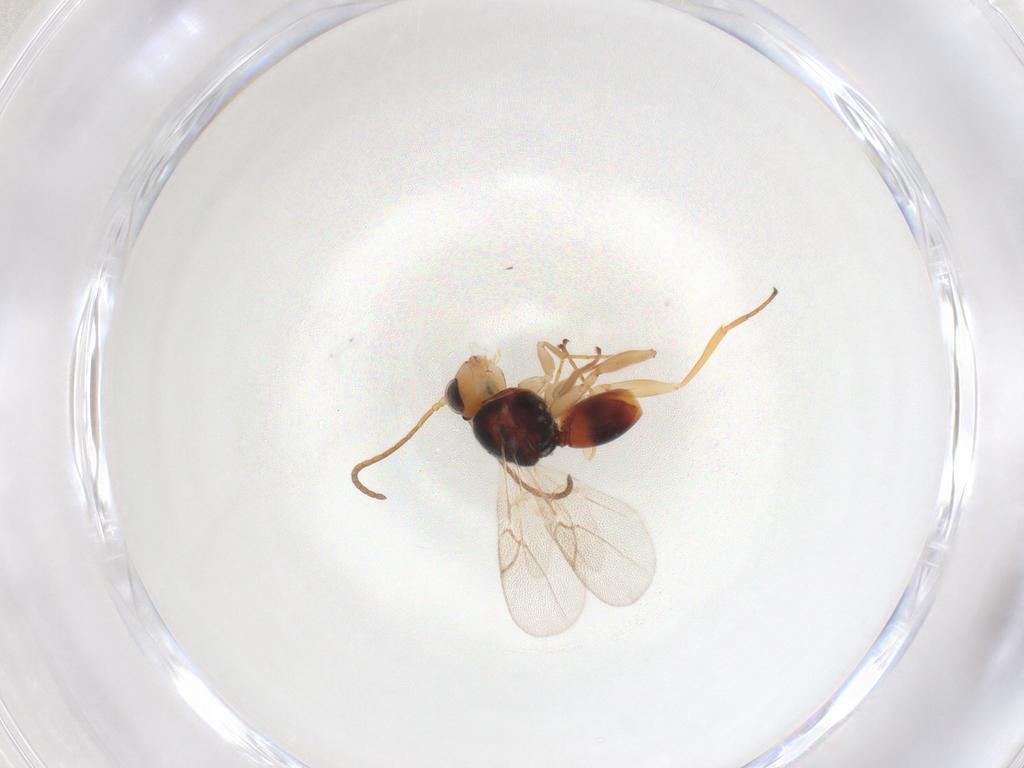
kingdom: Animalia
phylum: Arthropoda
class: Insecta
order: Hymenoptera
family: Cynipidae
